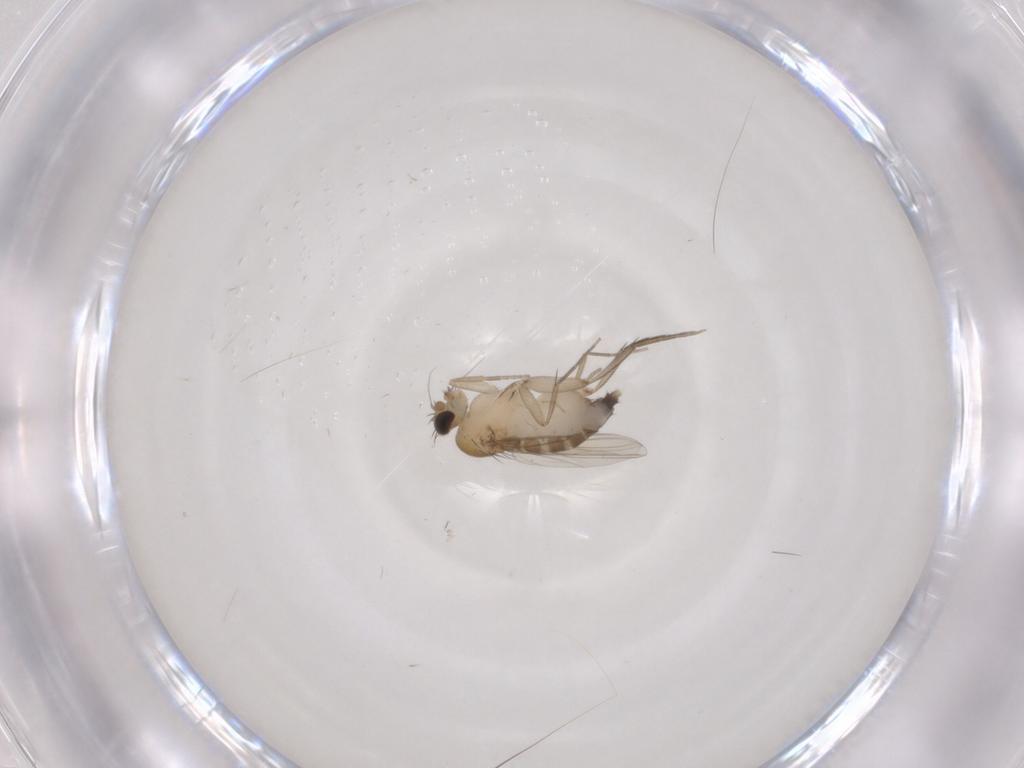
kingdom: Animalia
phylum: Arthropoda
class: Insecta
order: Diptera
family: Phoridae
